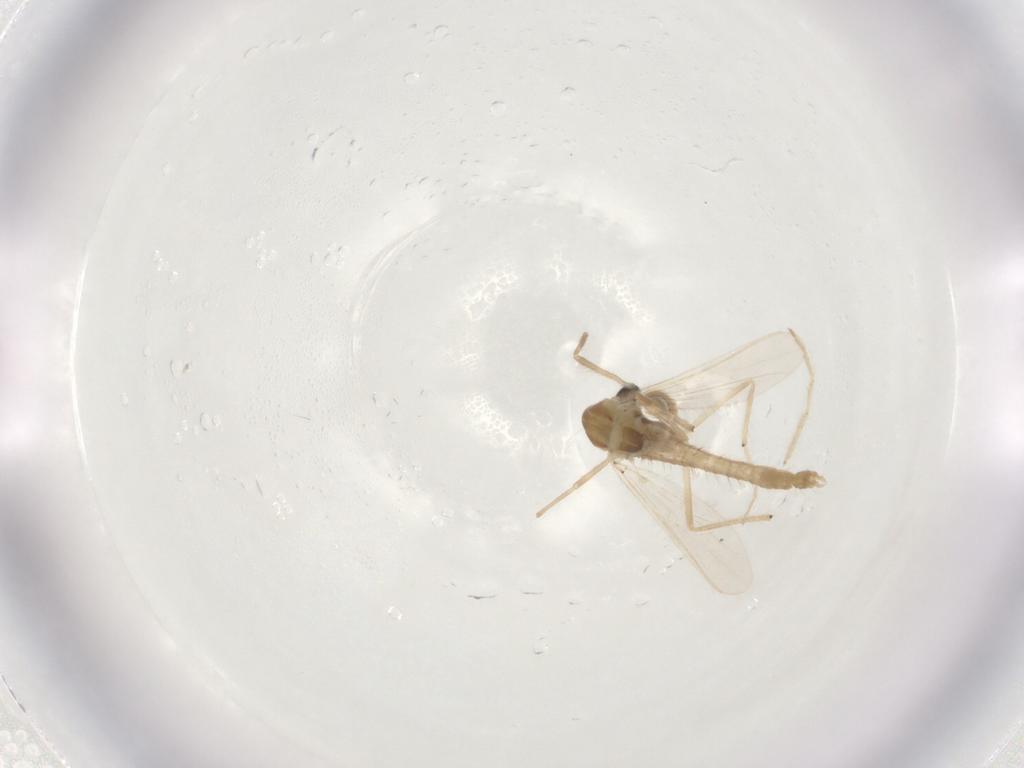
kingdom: Animalia
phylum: Arthropoda
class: Insecta
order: Diptera
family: Chironomidae
